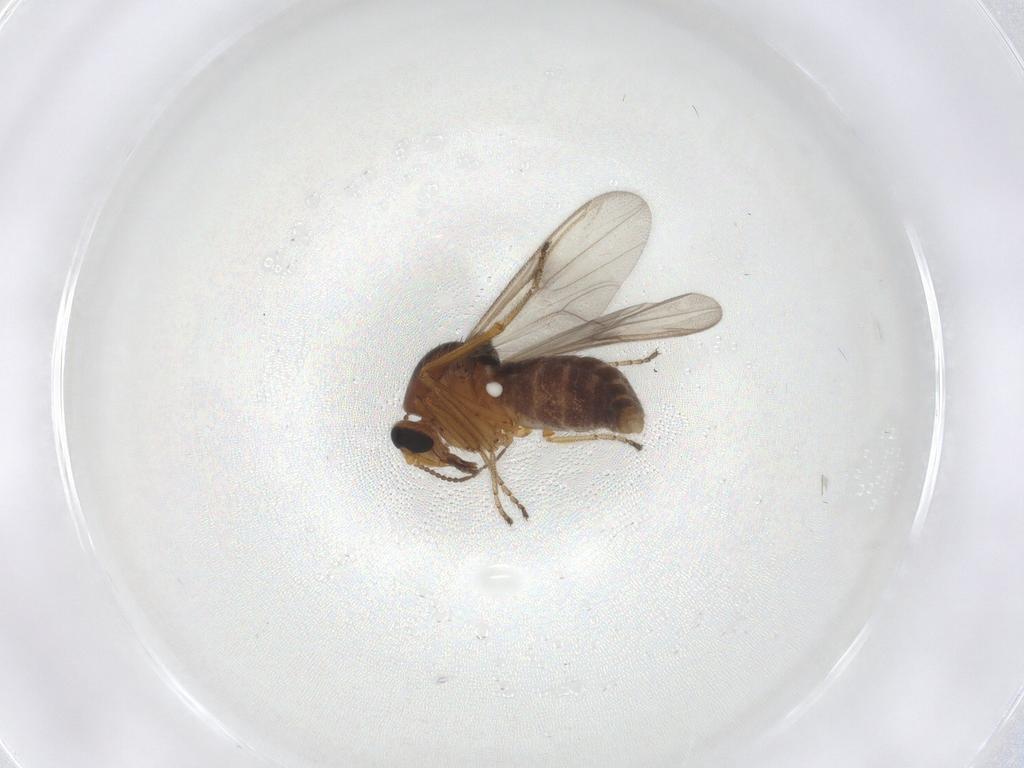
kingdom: Animalia
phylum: Arthropoda
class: Insecta
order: Diptera
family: Ceratopogonidae
